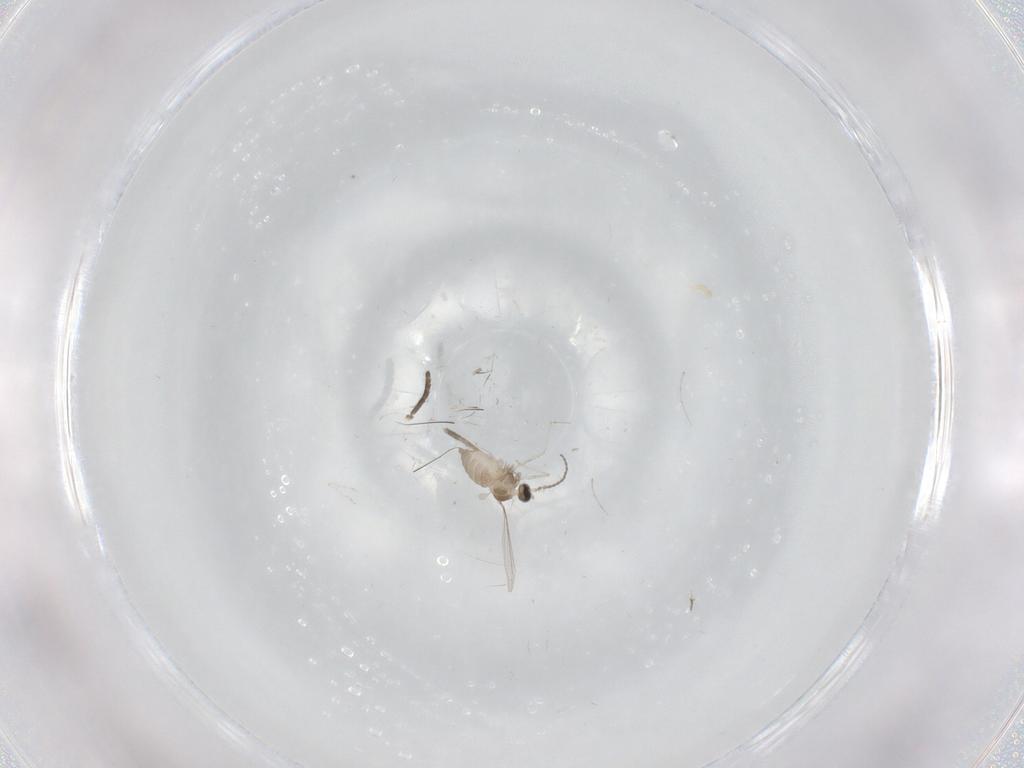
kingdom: Animalia
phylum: Arthropoda
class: Insecta
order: Diptera
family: Cecidomyiidae
